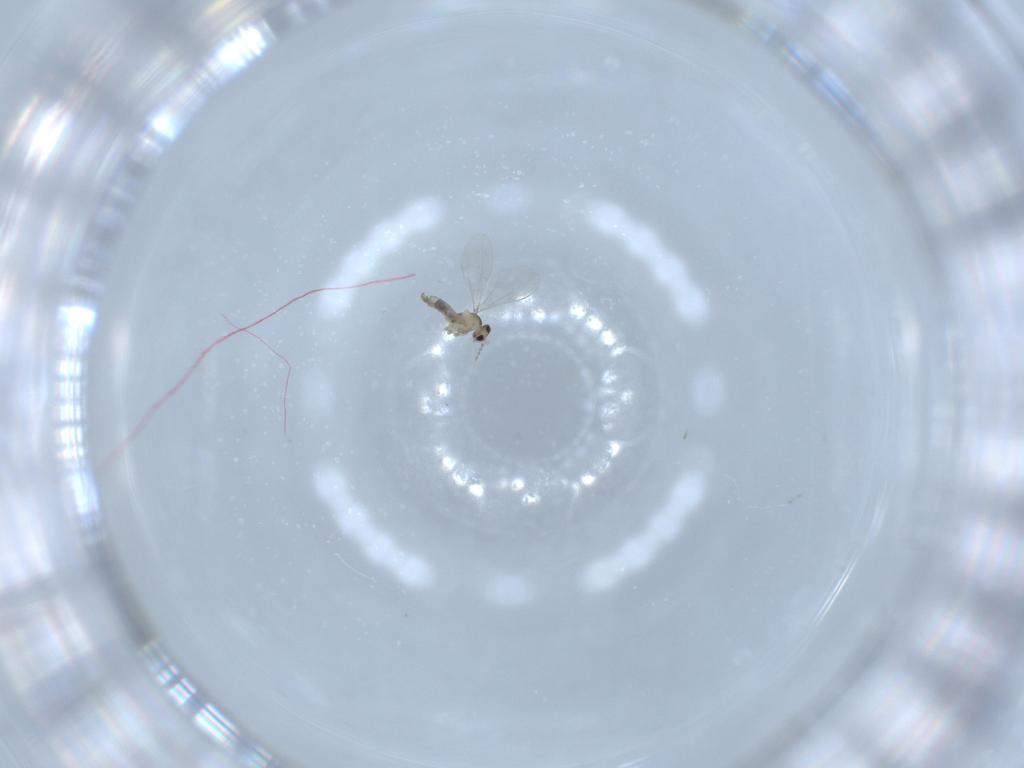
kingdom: Animalia
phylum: Arthropoda
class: Insecta
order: Diptera
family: Cecidomyiidae
